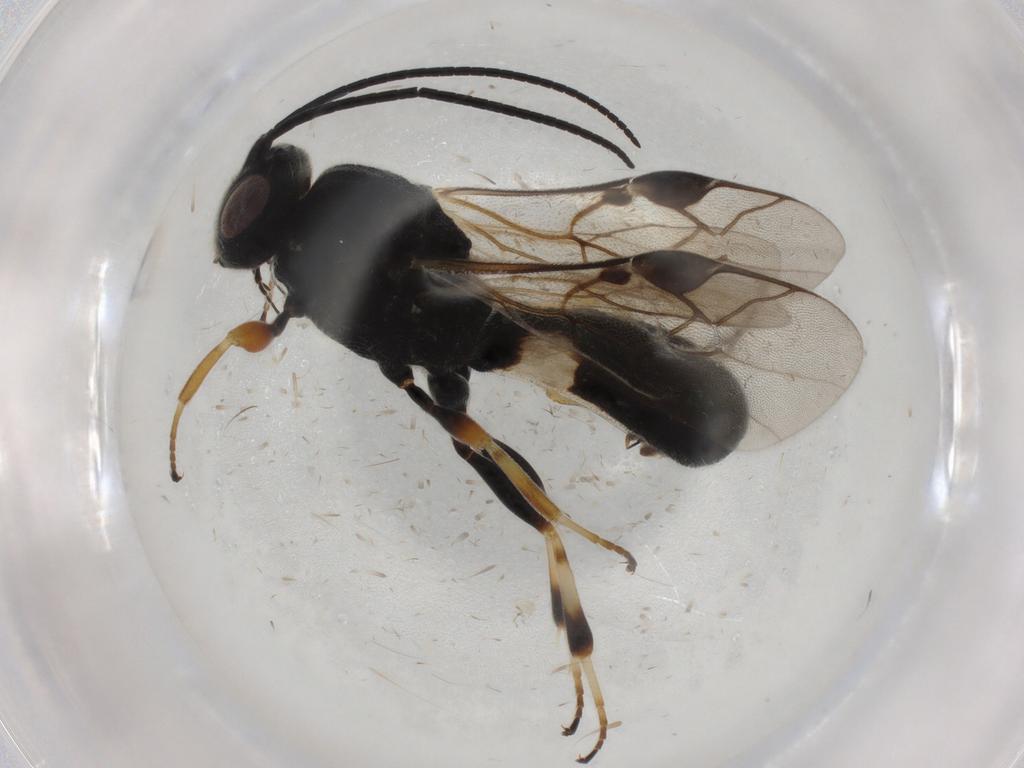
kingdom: Animalia
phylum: Arthropoda
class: Insecta
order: Hymenoptera
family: Braconidae
